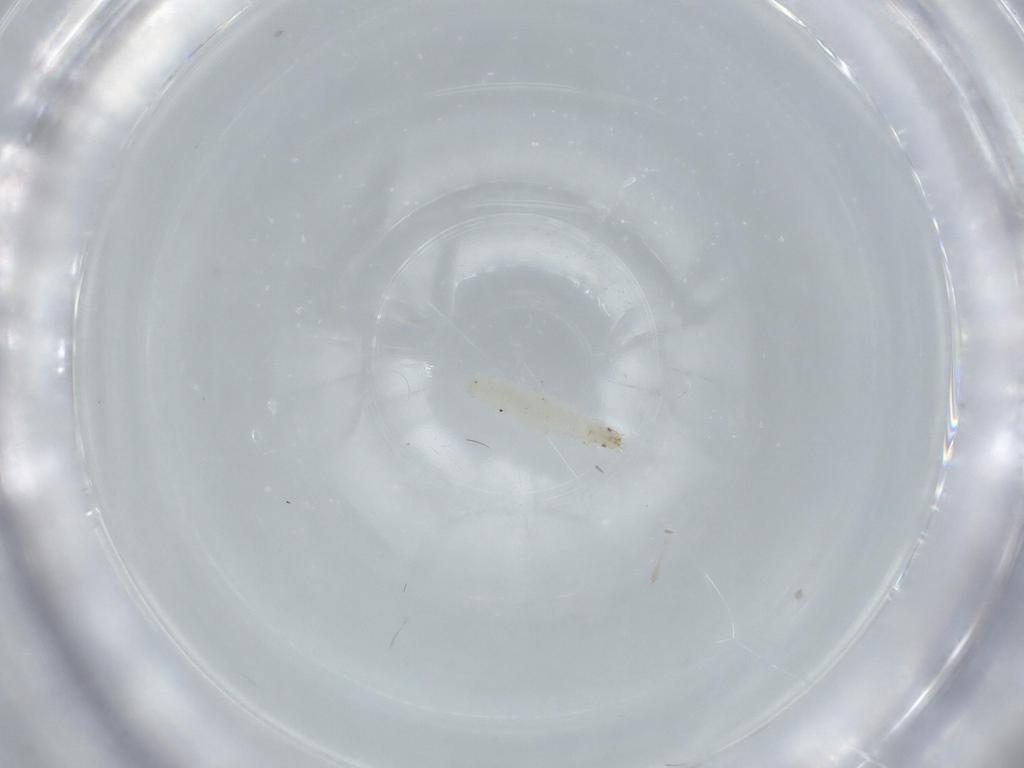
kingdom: Animalia
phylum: Arthropoda
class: Insecta
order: Diptera
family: Stratiomyidae
